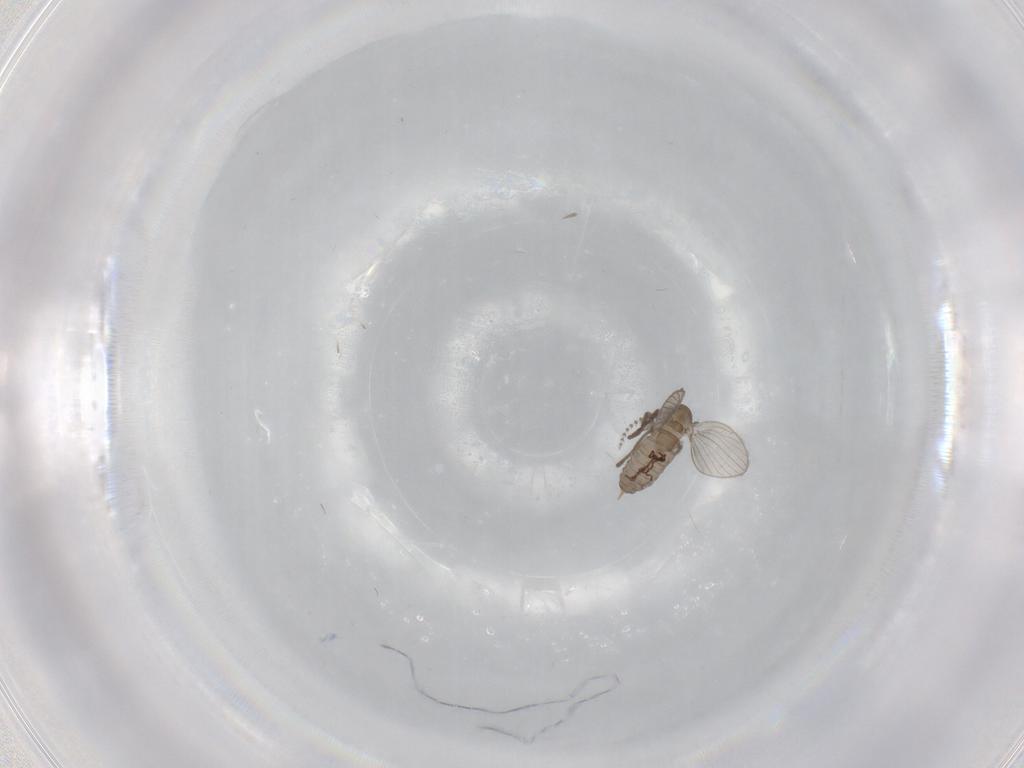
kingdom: Animalia
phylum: Arthropoda
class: Insecta
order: Diptera
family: Psychodidae
